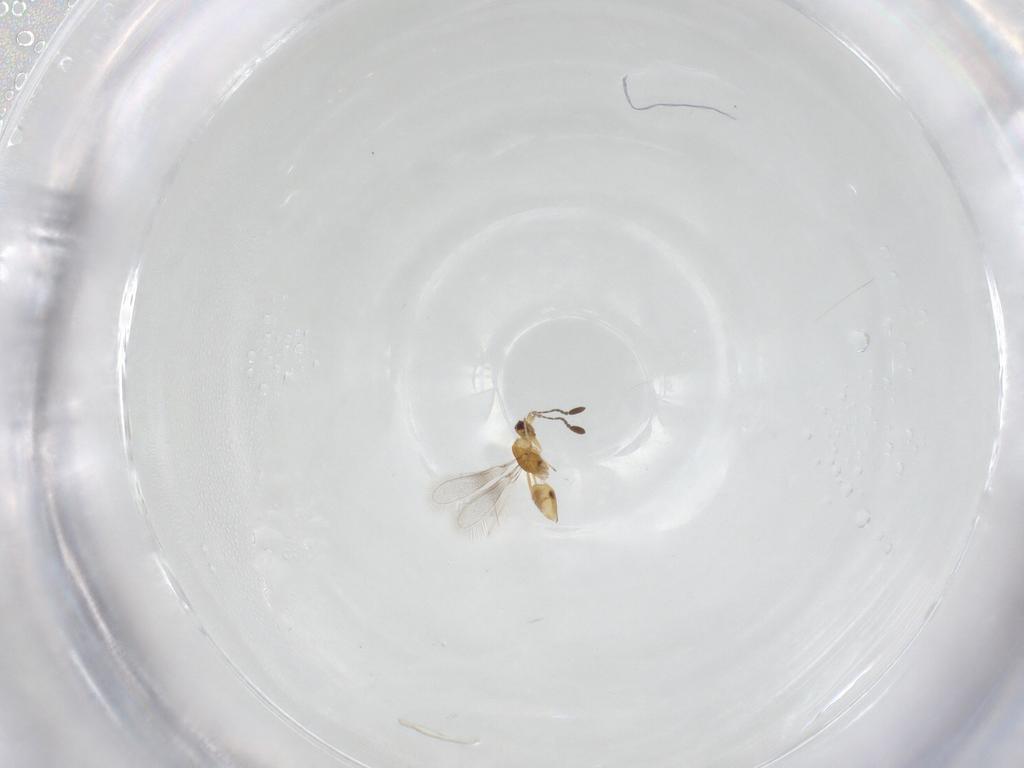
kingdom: Animalia
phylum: Arthropoda
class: Insecta
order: Hymenoptera
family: Mymaridae
